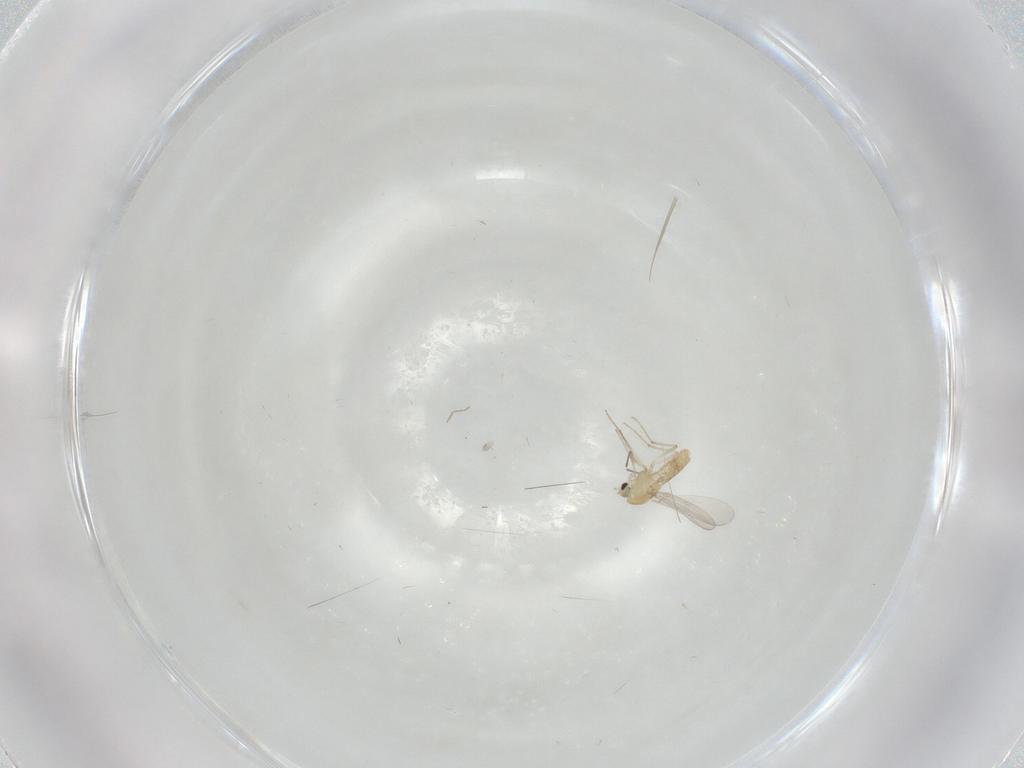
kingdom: Animalia
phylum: Arthropoda
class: Insecta
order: Diptera
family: Chironomidae
